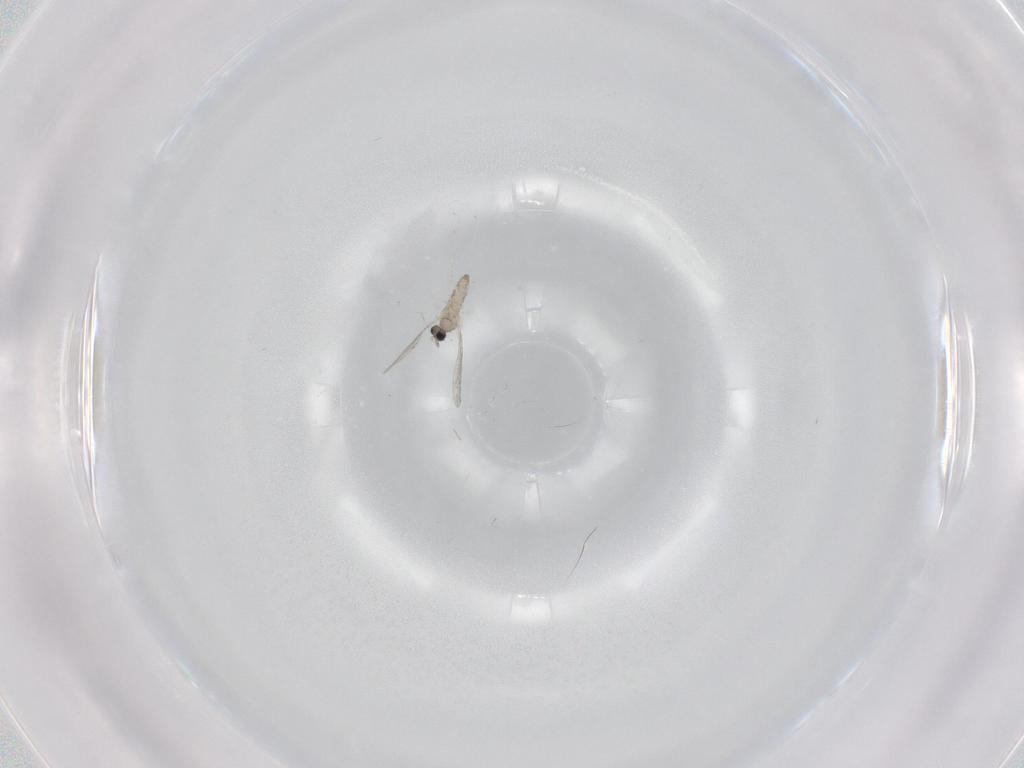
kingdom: Animalia
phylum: Arthropoda
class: Insecta
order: Diptera
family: Cecidomyiidae
